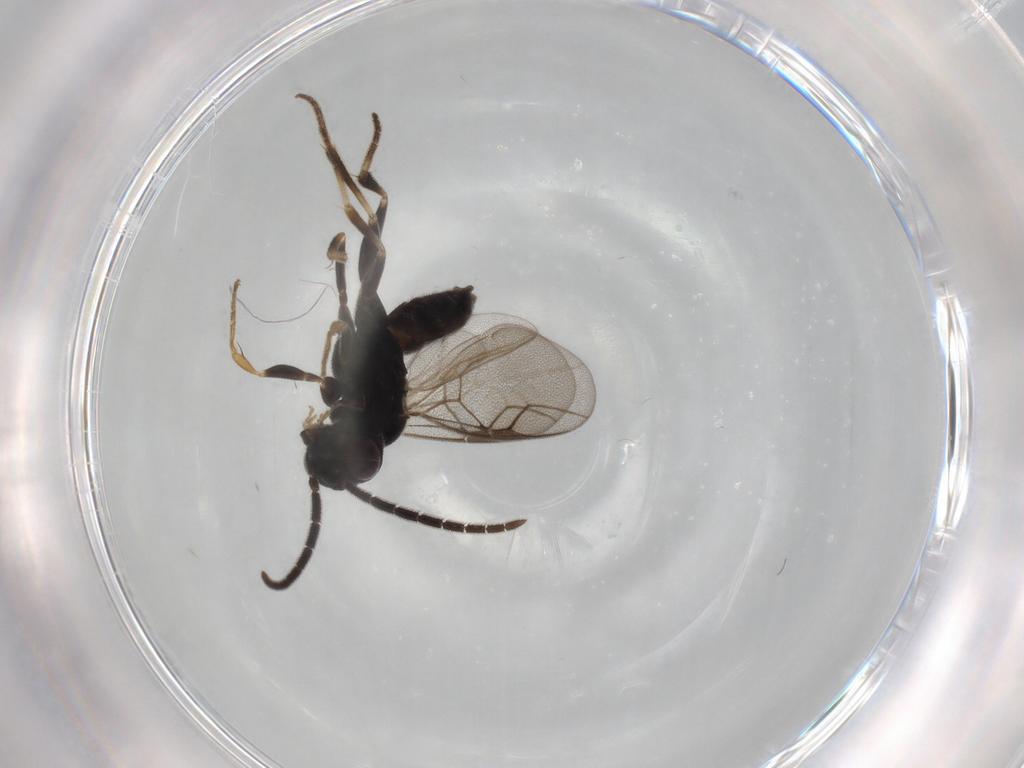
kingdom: Animalia
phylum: Arthropoda
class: Insecta
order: Hymenoptera
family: Dryinidae
